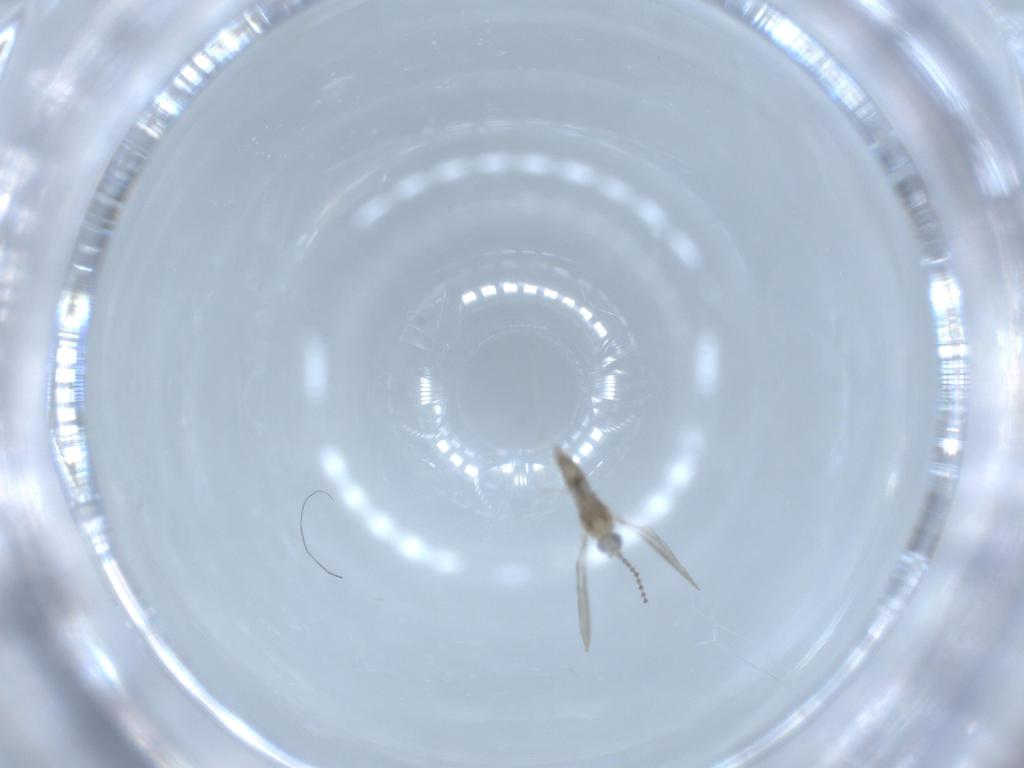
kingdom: Animalia
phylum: Arthropoda
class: Insecta
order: Diptera
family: Cecidomyiidae
